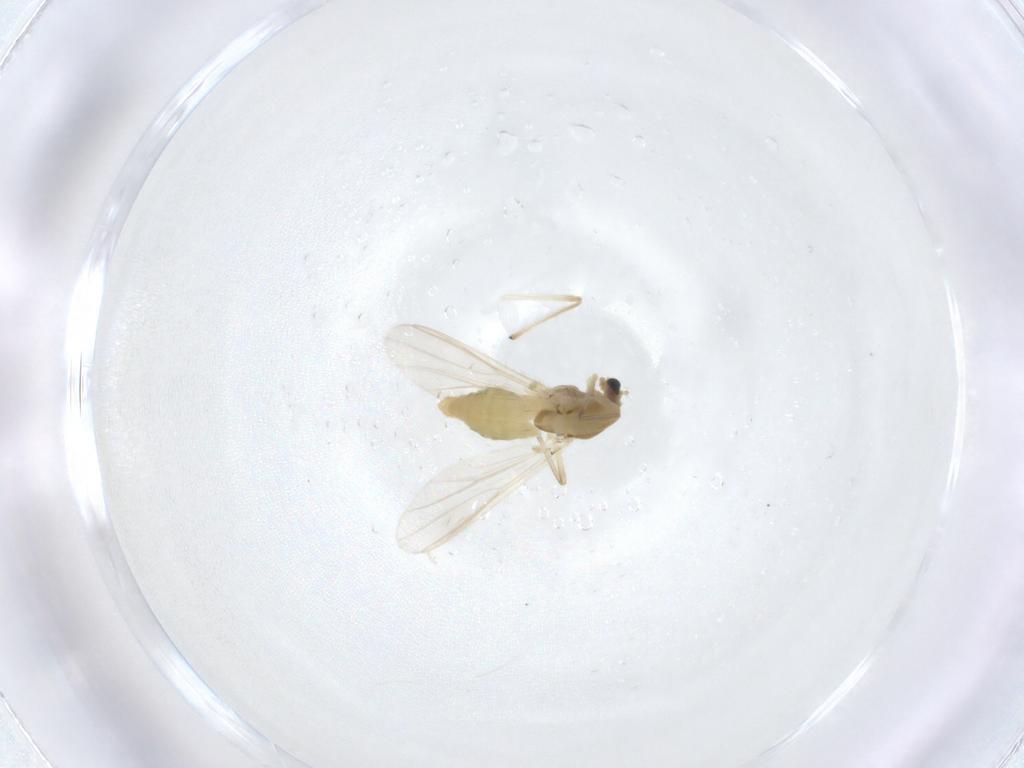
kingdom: Animalia
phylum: Arthropoda
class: Insecta
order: Diptera
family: Chironomidae
